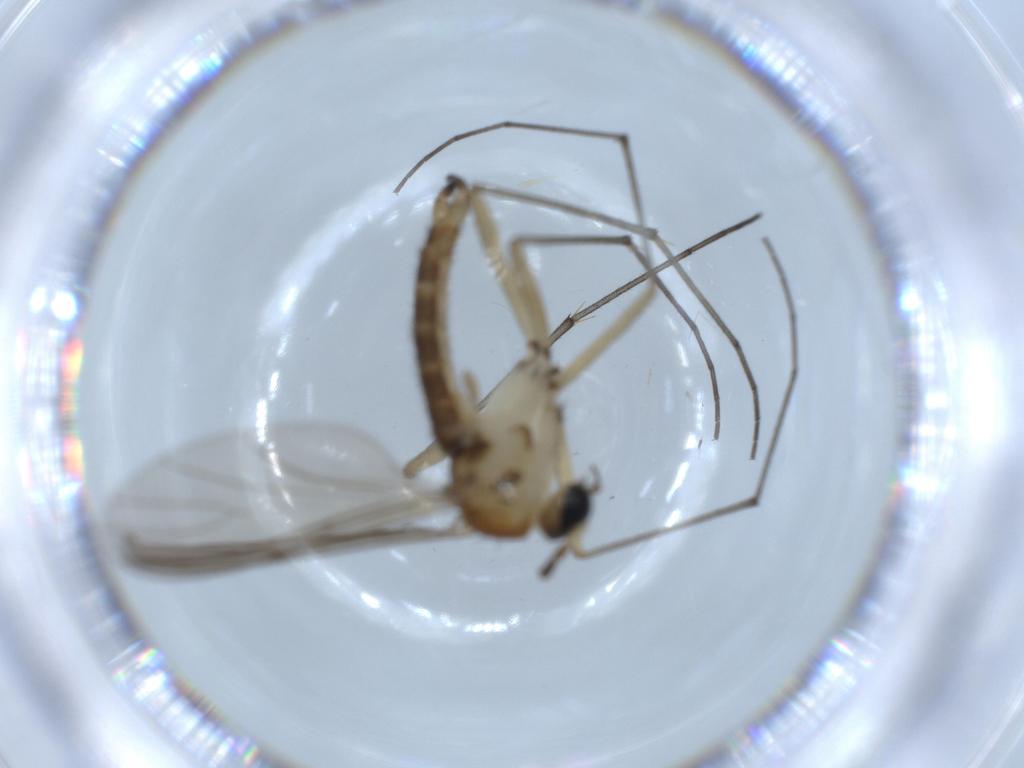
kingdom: Animalia
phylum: Arthropoda
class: Insecta
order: Diptera
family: Sciaridae
